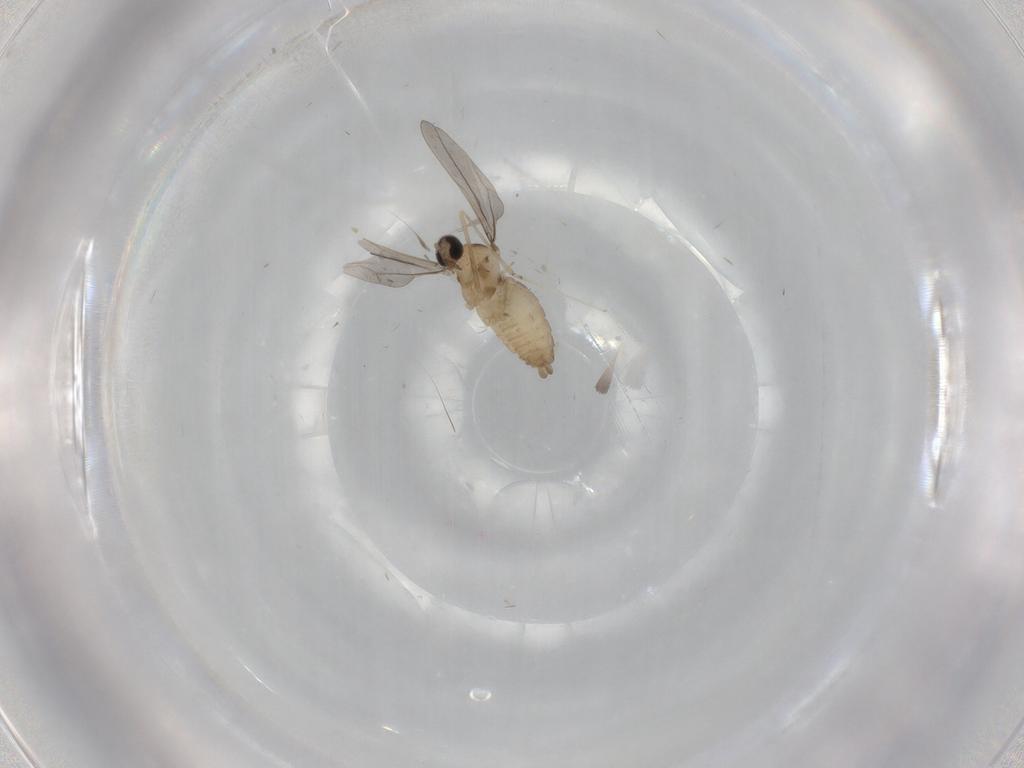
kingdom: Animalia
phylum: Arthropoda
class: Insecta
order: Diptera
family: Cecidomyiidae
